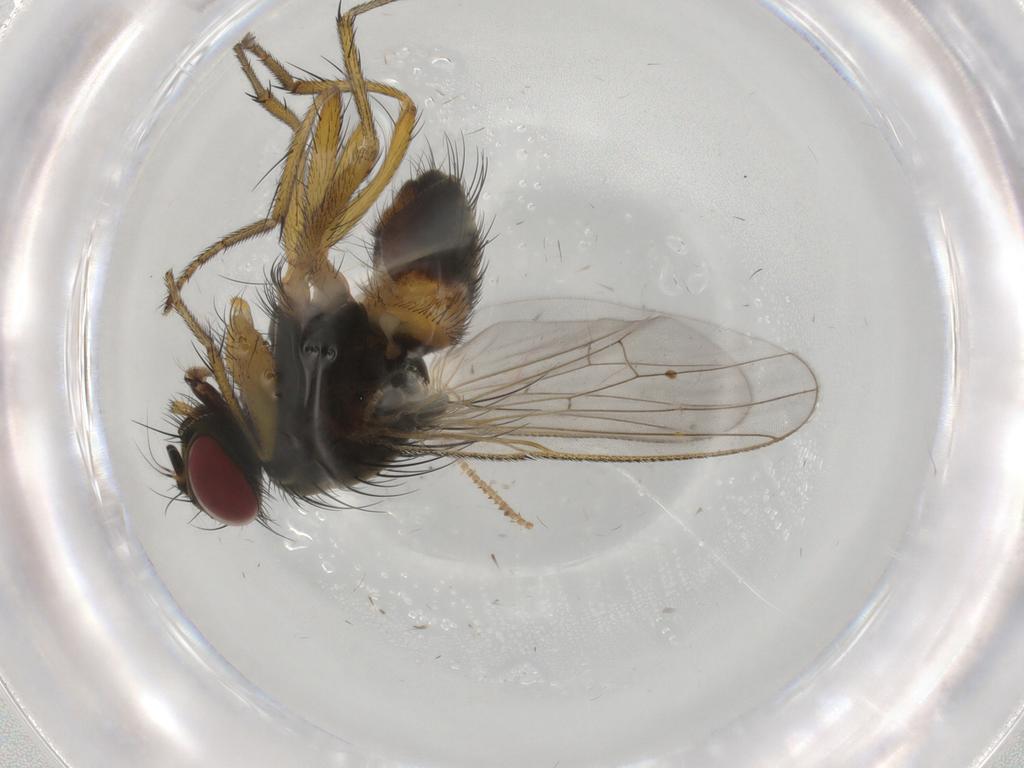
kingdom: Animalia
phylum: Arthropoda
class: Insecta
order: Diptera
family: Muscidae
